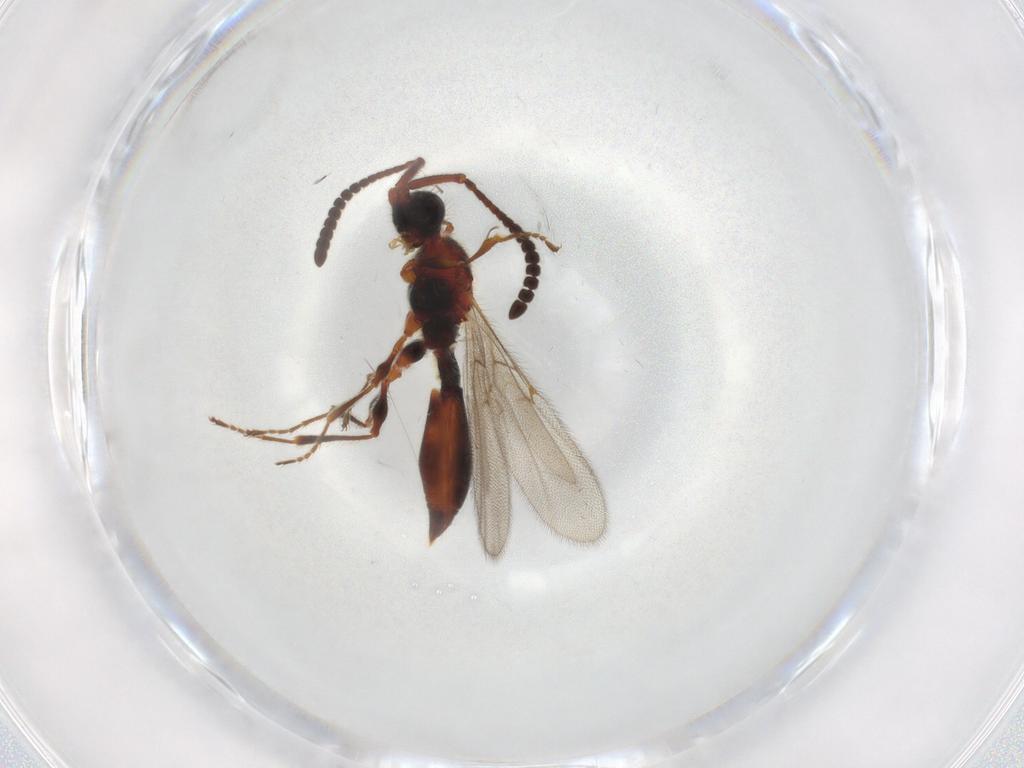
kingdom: Animalia
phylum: Arthropoda
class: Insecta
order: Hymenoptera
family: Diapriidae
